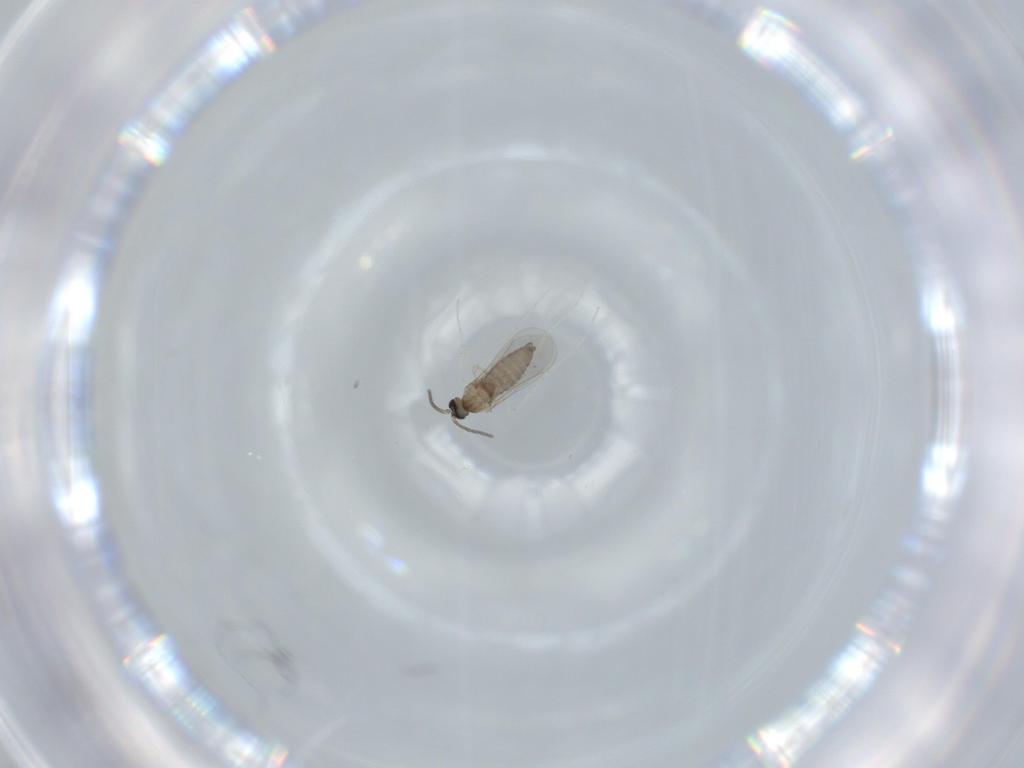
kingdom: Animalia
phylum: Arthropoda
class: Insecta
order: Diptera
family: Cecidomyiidae
